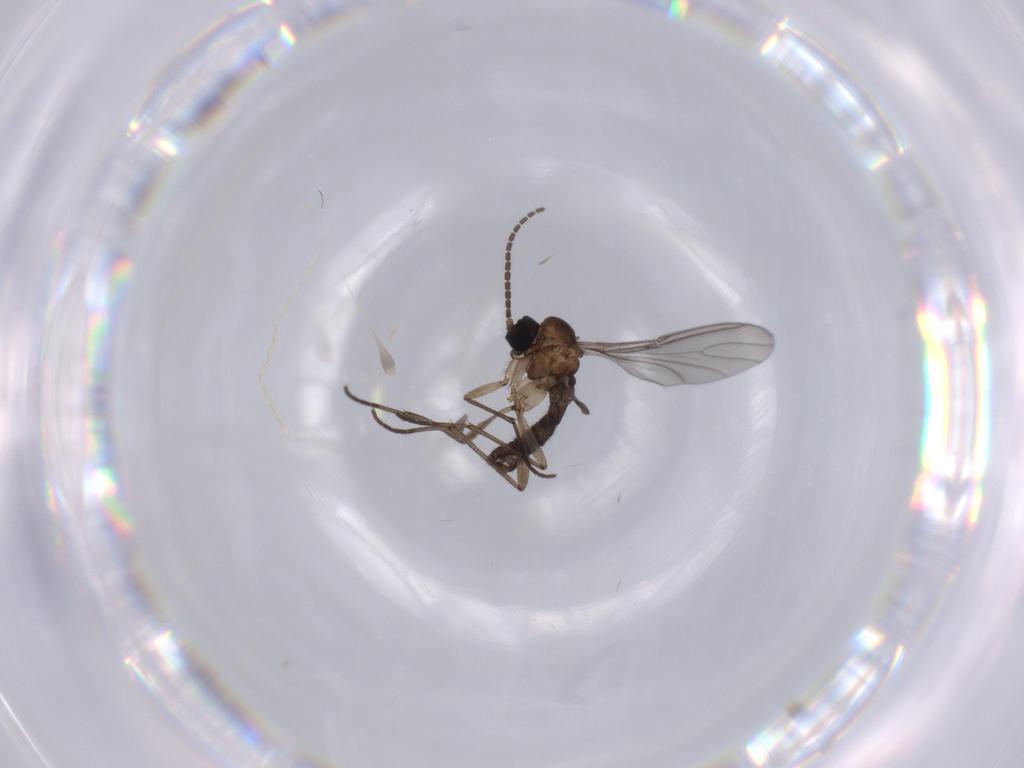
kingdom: Animalia
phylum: Arthropoda
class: Insecta
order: Diptera
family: Sciaridae
